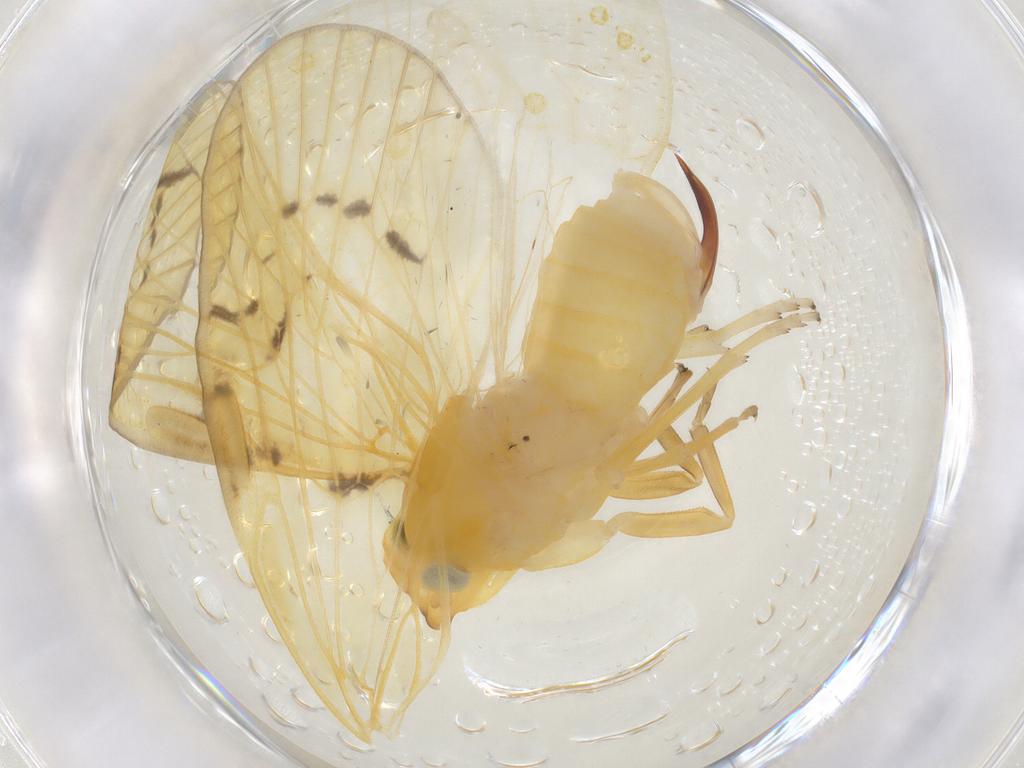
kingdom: Animalia
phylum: Arthropoda
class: Insecta
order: Hemiptera
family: Cixiidae
